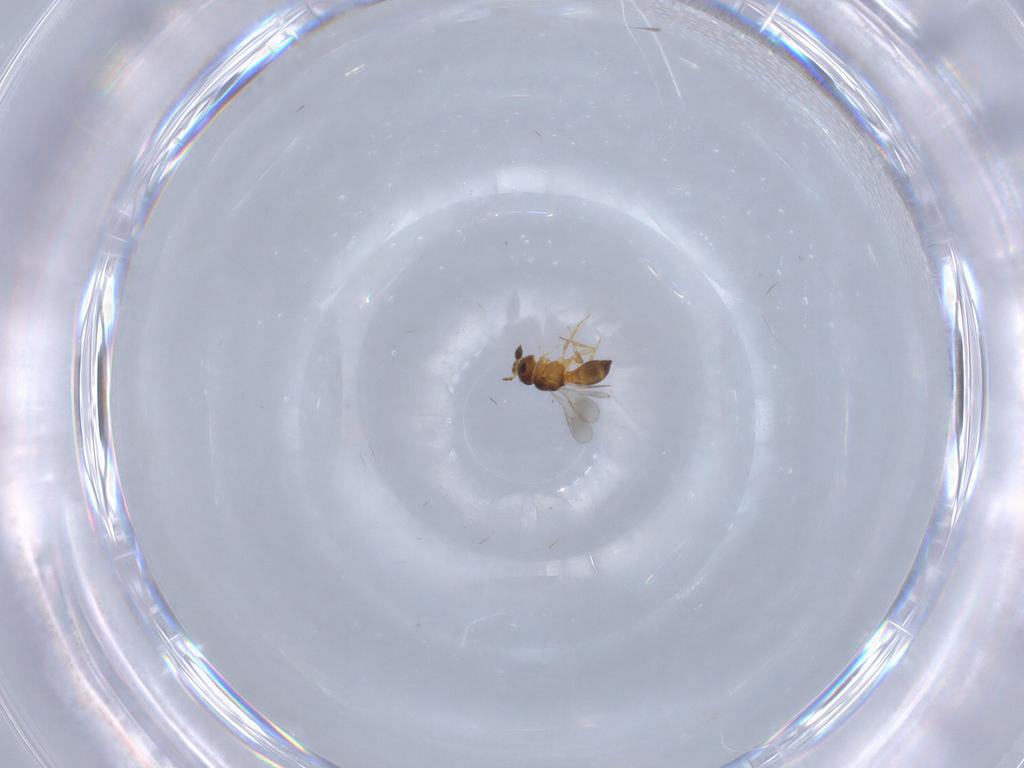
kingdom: Animalia
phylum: Arthropoda
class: Insecta
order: Hymenoptera
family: Scelionidae
